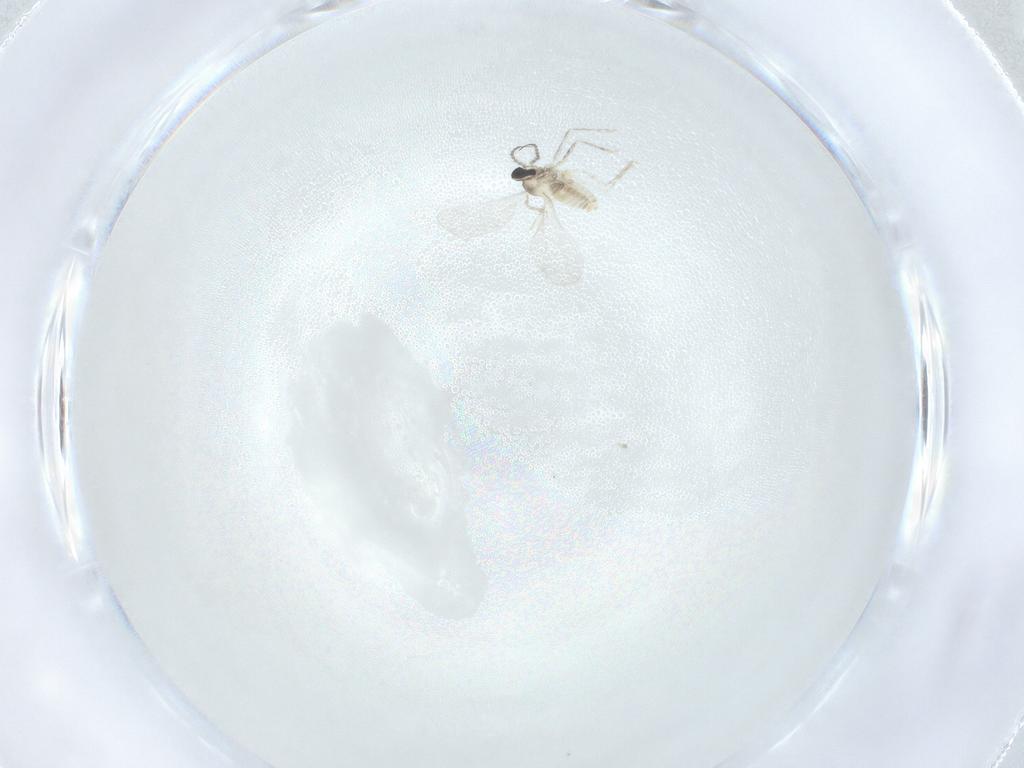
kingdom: Animalia
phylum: Arthropoda
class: Insecta
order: Diptera
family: Cecidomyiidae
